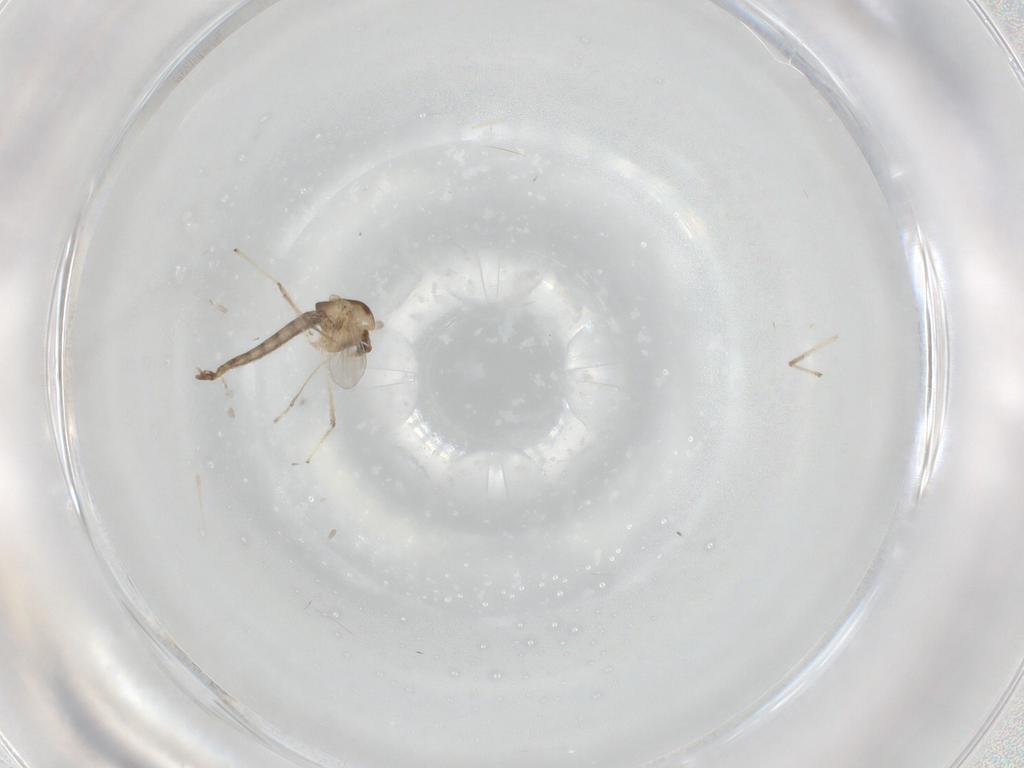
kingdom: Animalia
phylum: Arthropoda
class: Insecta
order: Diptera
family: Chironomidae
